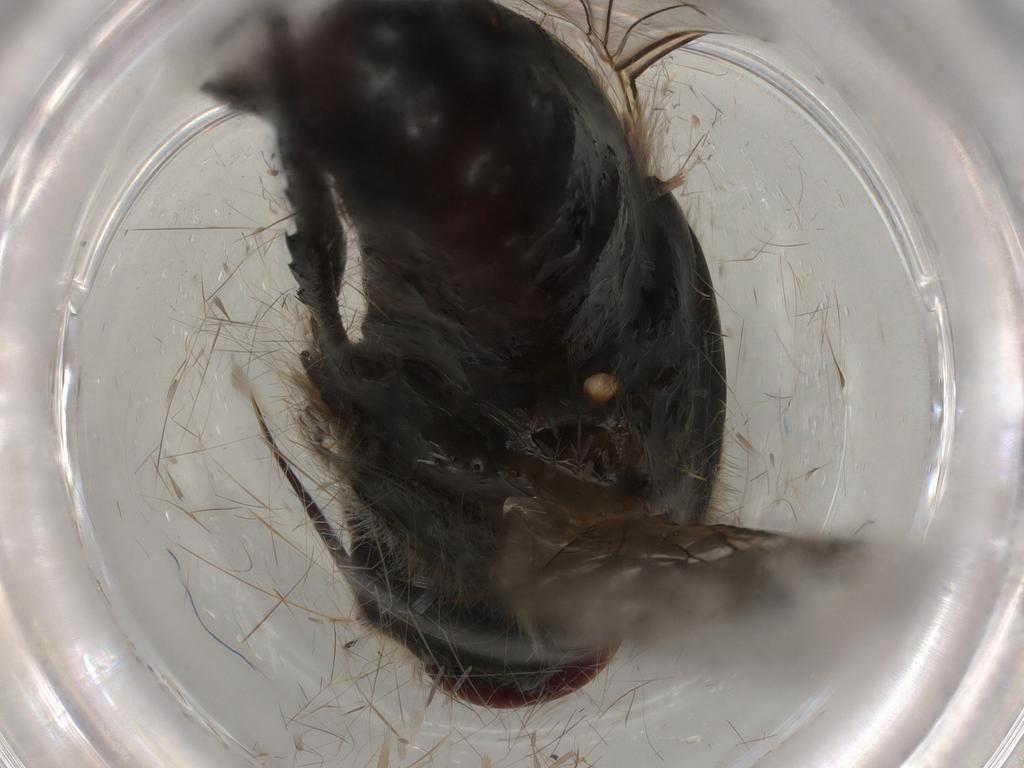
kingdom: Animalia
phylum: Arthropoda
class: Insecta
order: Diptera
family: Bombyliidae
